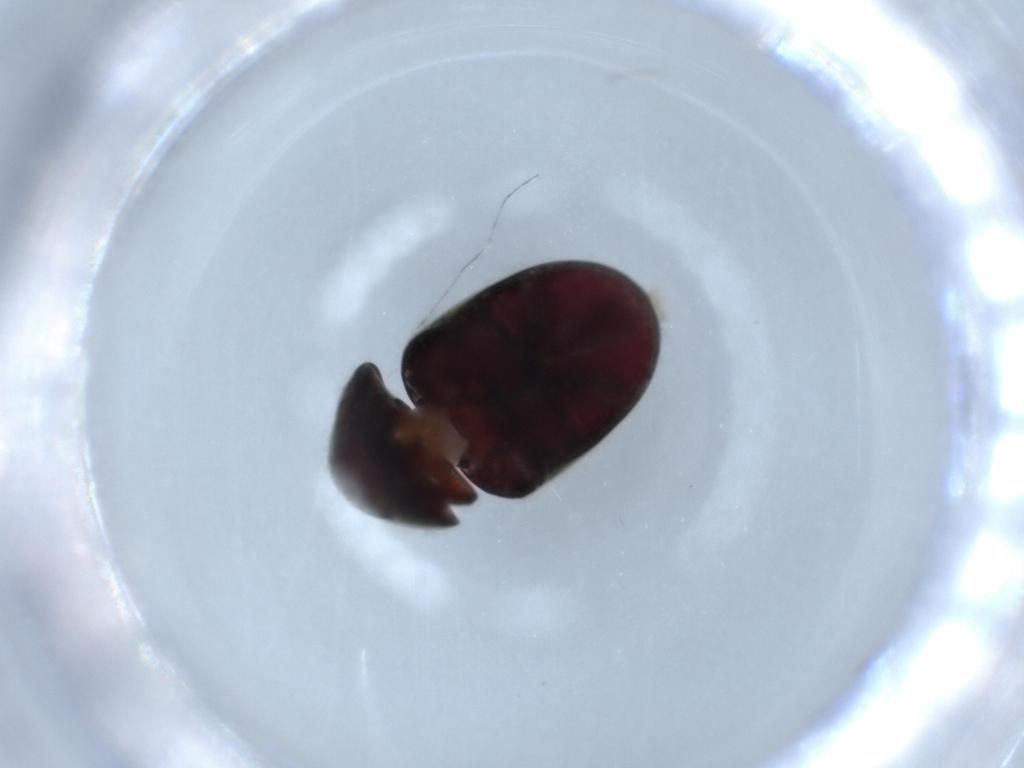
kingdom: Animalia
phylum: Arthropoda
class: Insecta
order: Coleoptera
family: Ptinidae
